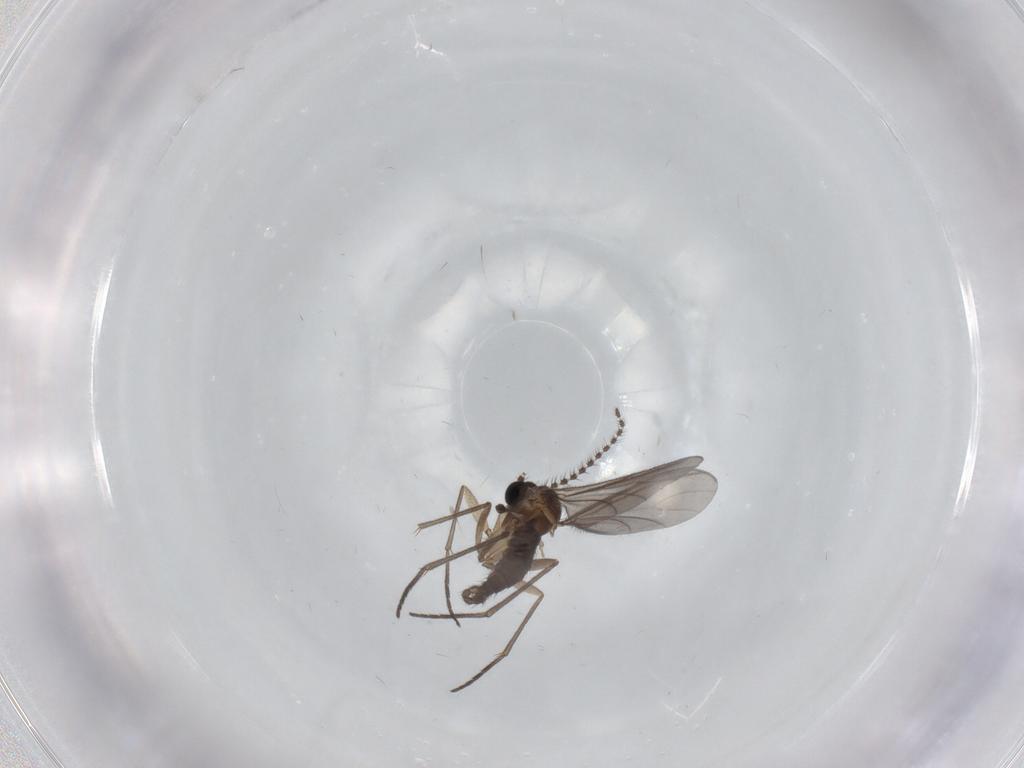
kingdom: Animalia
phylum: Arthropoda
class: Insecta
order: Diptera
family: Sciaridae
